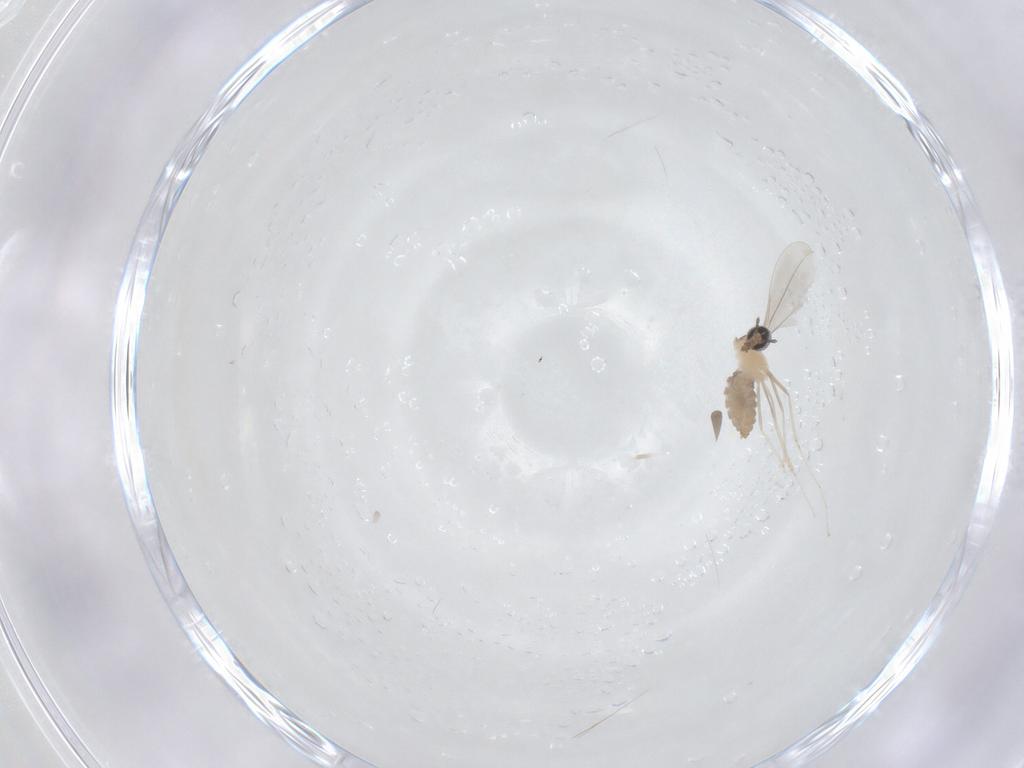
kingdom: Animalia
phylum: Arthropoda
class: Insecta
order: Diptera
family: Cecidomyiidae
